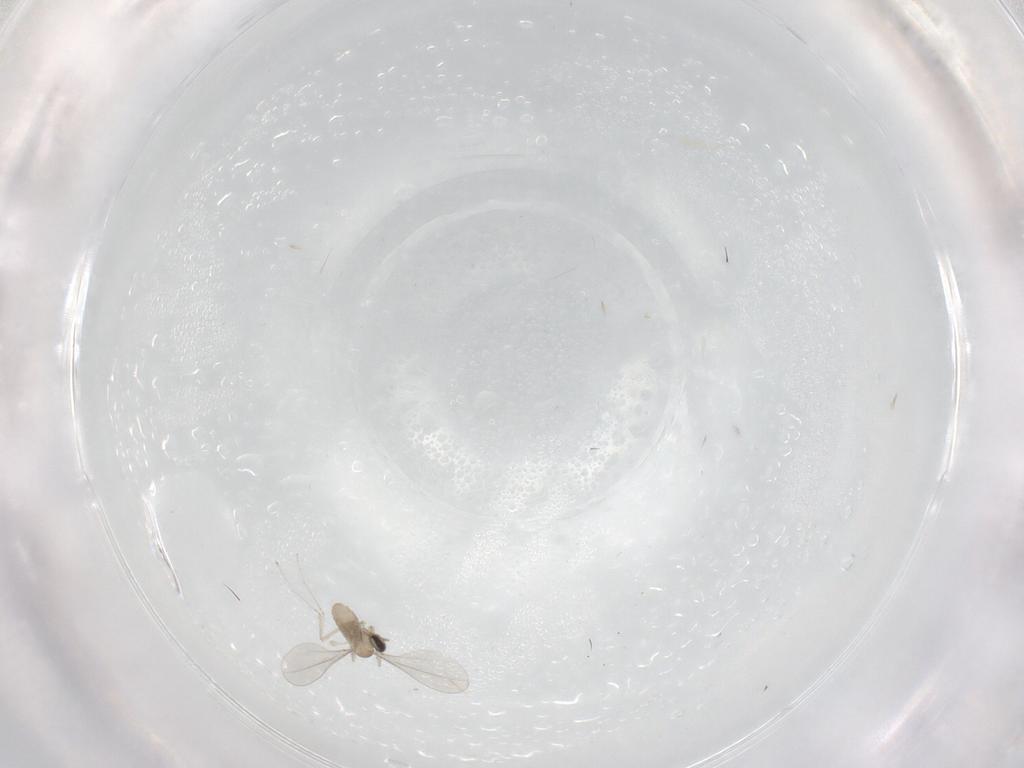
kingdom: Animalia
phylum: Arthropoda
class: Insecta
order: Diptera
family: Cecidomyiidae
